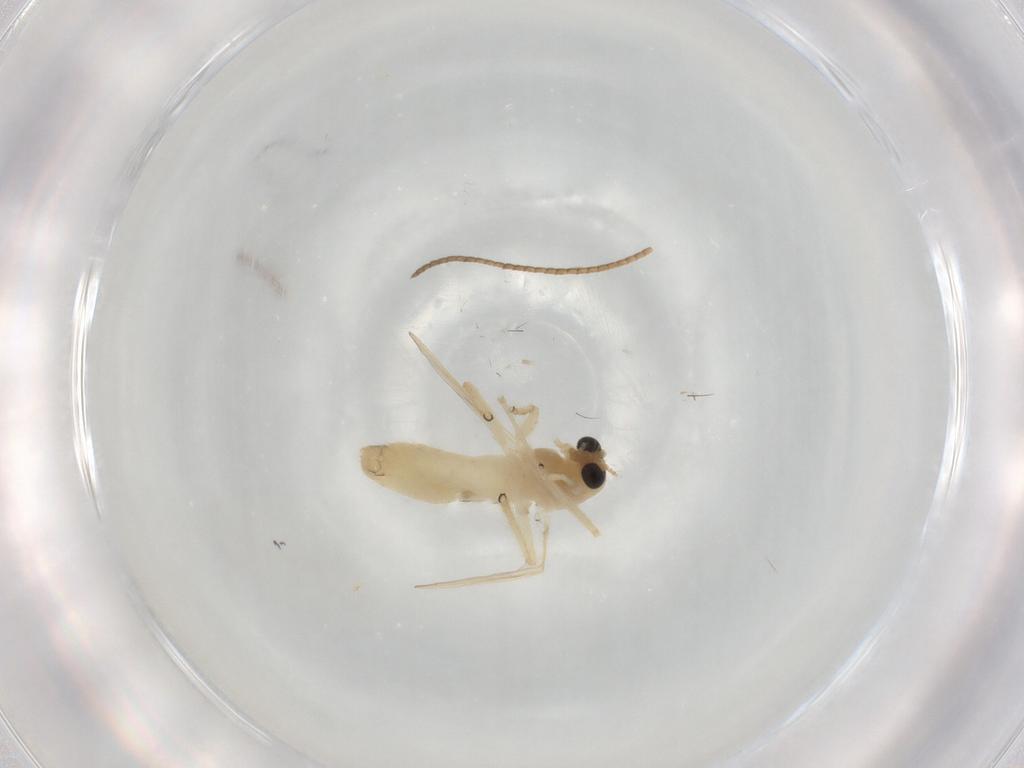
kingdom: Animalia
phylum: Arthropoda
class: Insecta
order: Diptera
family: Chironomidae
